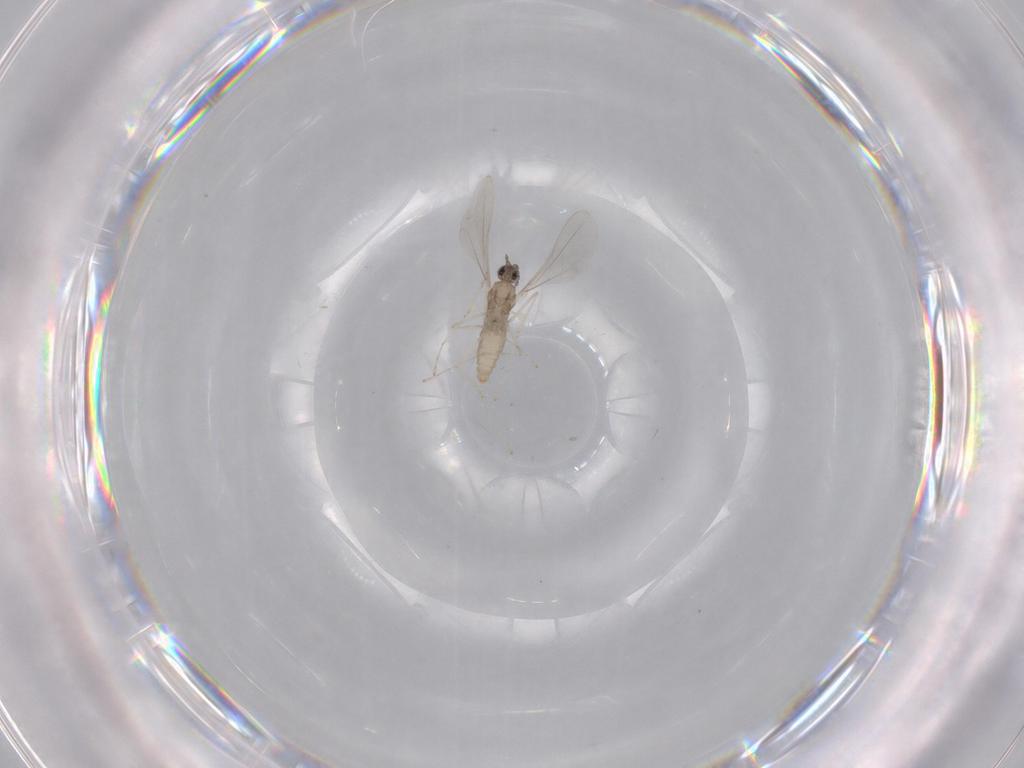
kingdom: Animalia
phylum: Arthropoda
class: Insecta
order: Diptera
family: Cecidomyiidae
